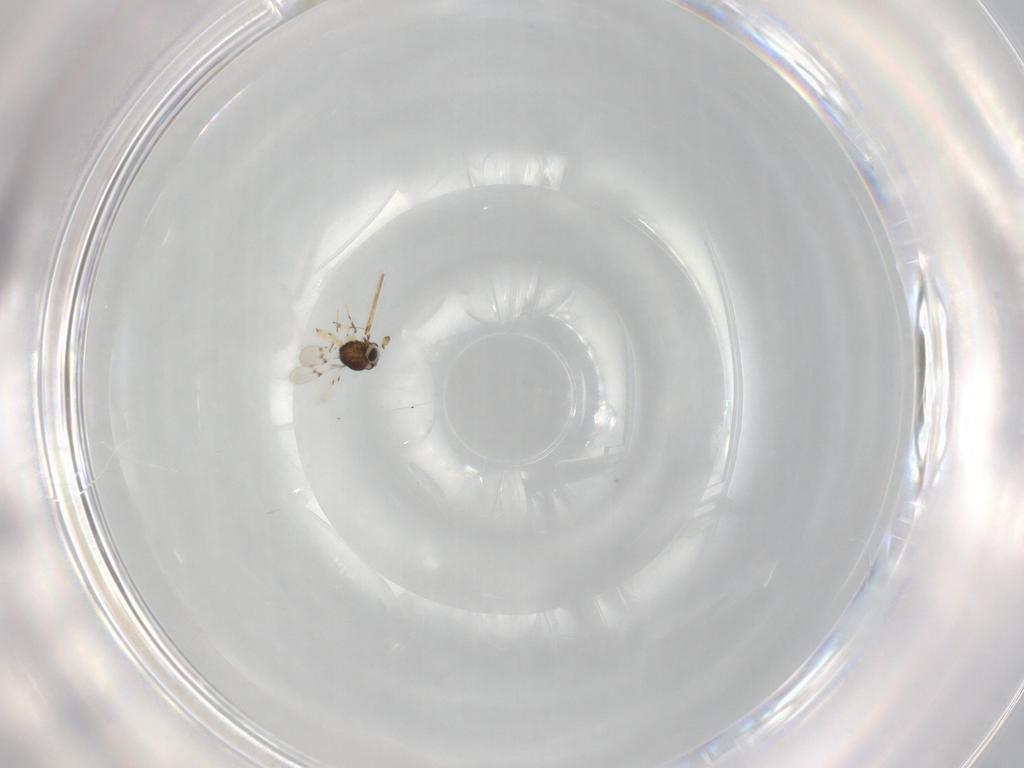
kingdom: Animalia
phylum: Arthropoda
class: Insecta
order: Hymenoptera
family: Scelionidae
